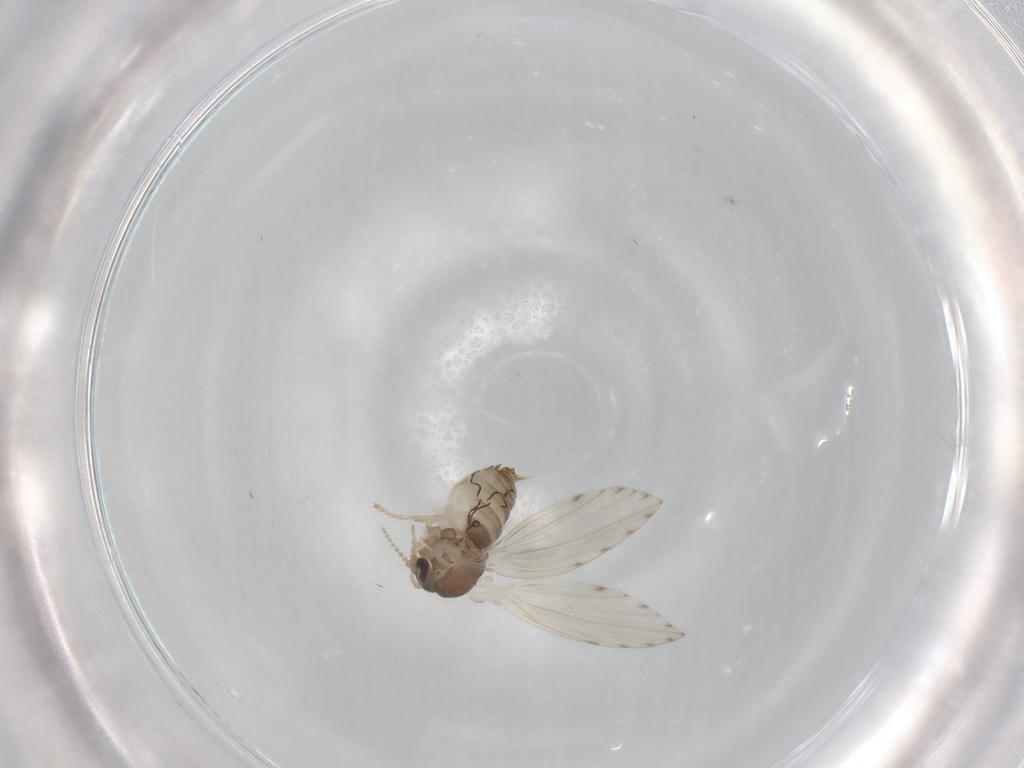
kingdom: Animalia
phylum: Arthropoda
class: Insecta
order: Diptera
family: Psychodidae
